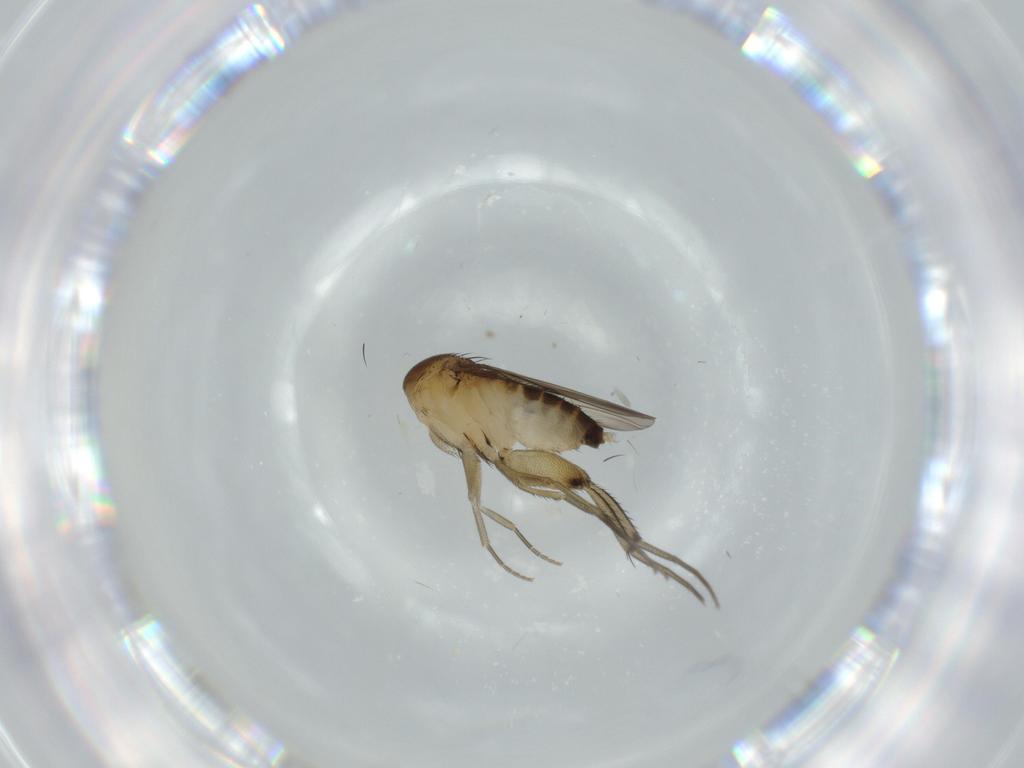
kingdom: Animalia
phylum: Arthropoda
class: Insecta
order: Diptera
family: Phoridae
